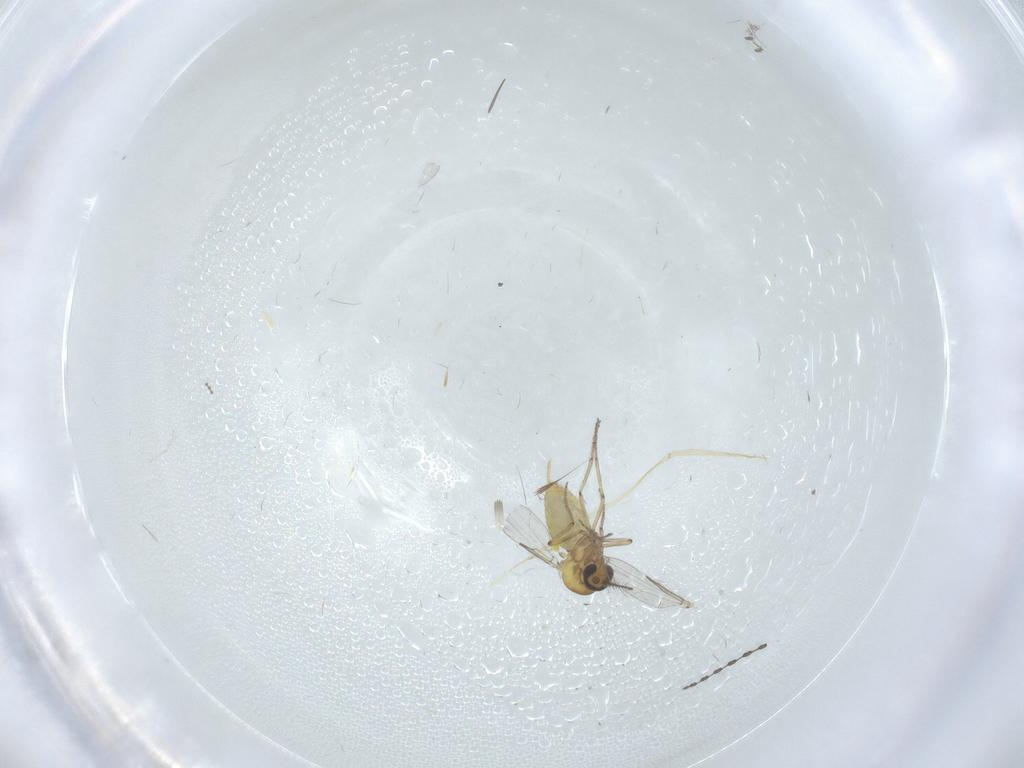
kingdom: Animalia
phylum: Arthropoda
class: Insecta
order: Diptera
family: Ceratopogonidae
